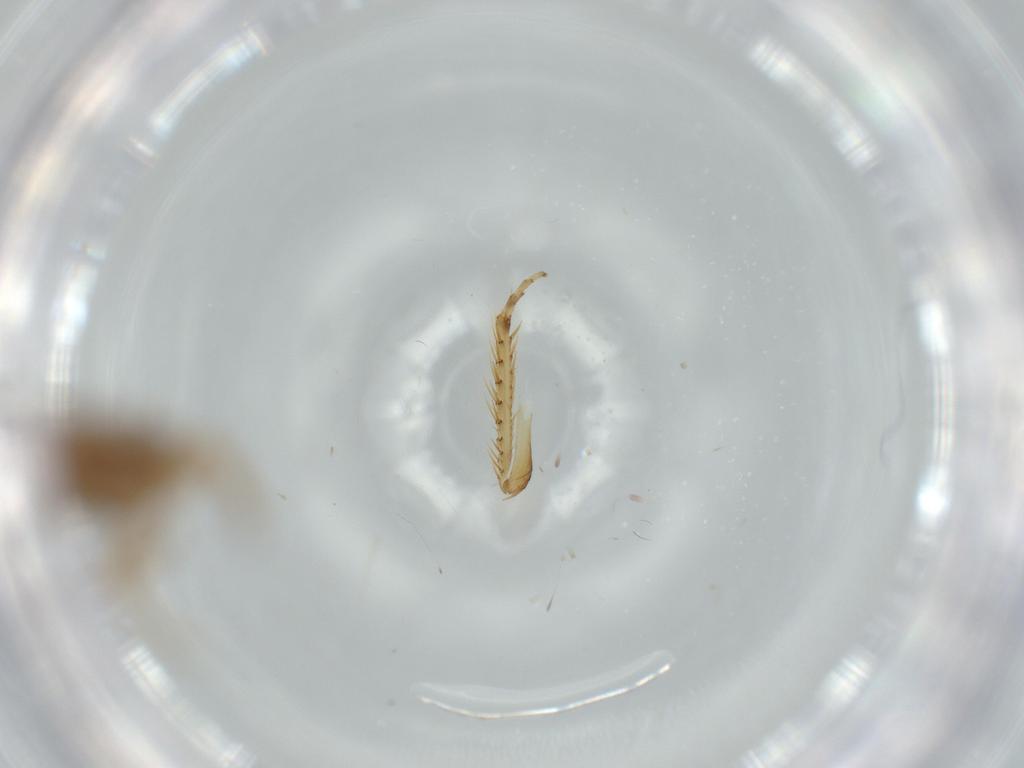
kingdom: Animalia
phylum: Arthropoda
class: Insecta
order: Hemiptera
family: Cicadellidae
